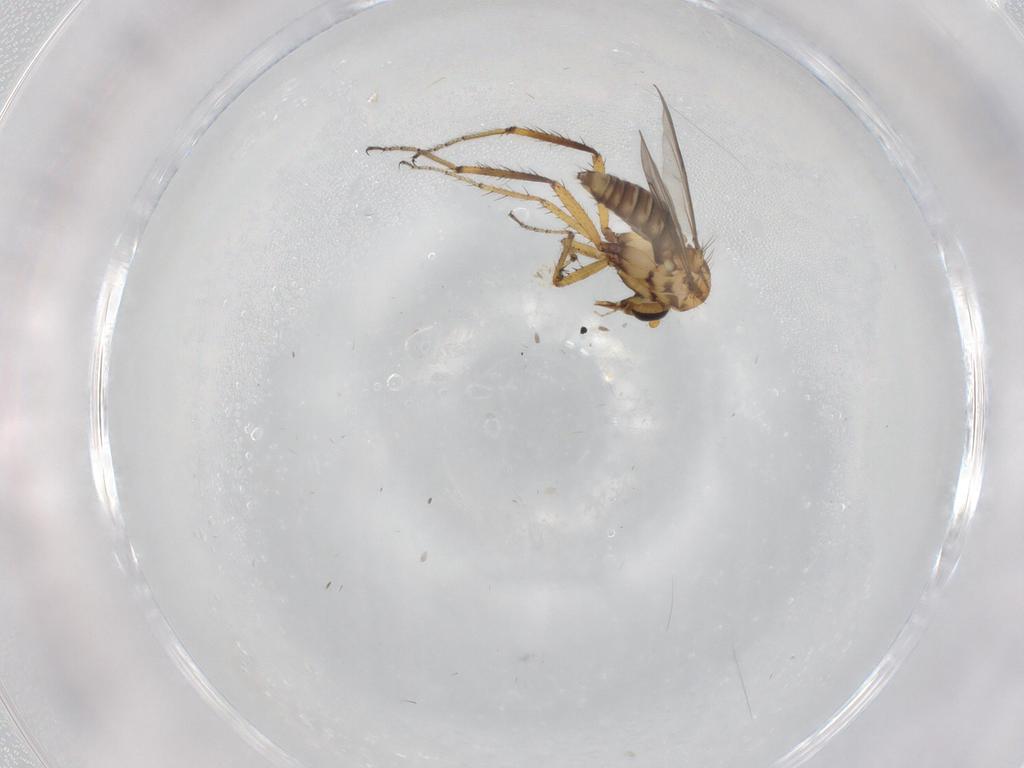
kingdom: Animalia
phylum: Arthropoda
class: Insecta
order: Diptera
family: Ceratopogonidae
